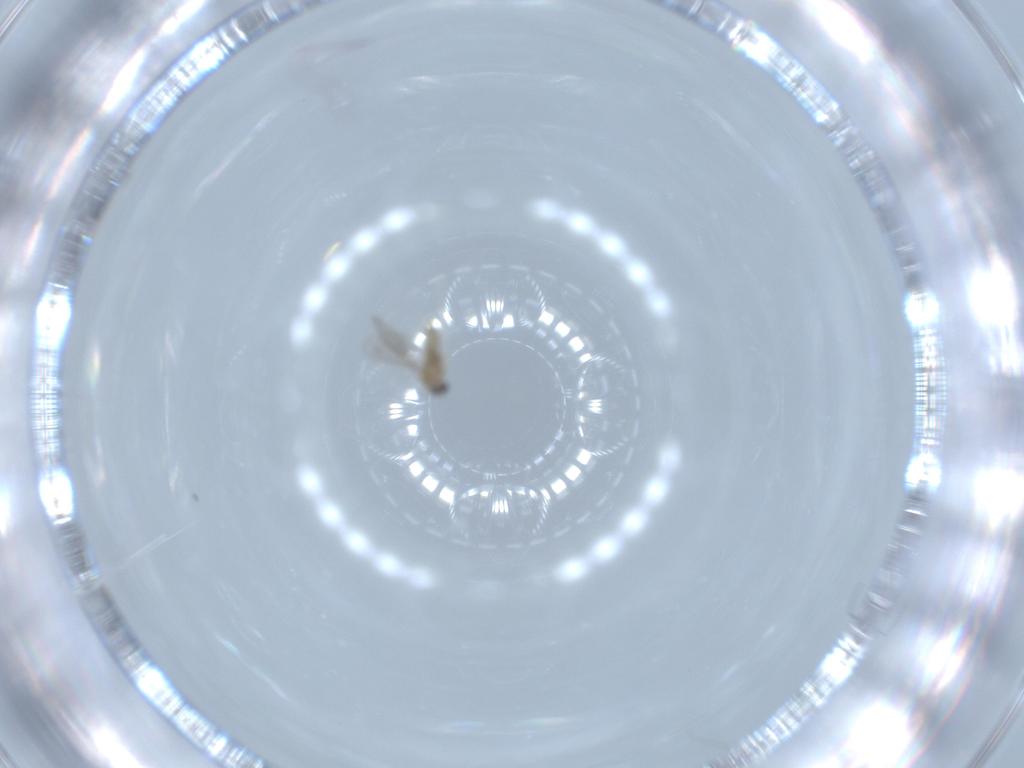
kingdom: Animalia
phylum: Arthropoda
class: Insecta
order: Diptera
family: Cecidomyiidae
